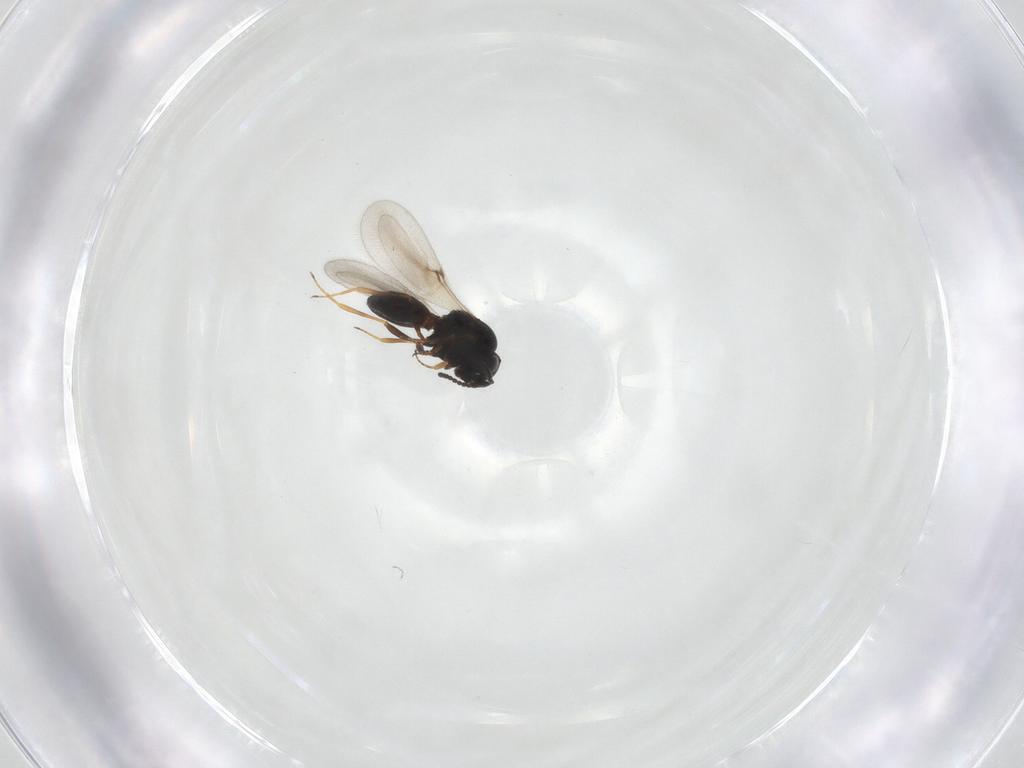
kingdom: Animalia
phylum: Arthropoda
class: Insecta
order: Hymenoptera
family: Scelionidae
